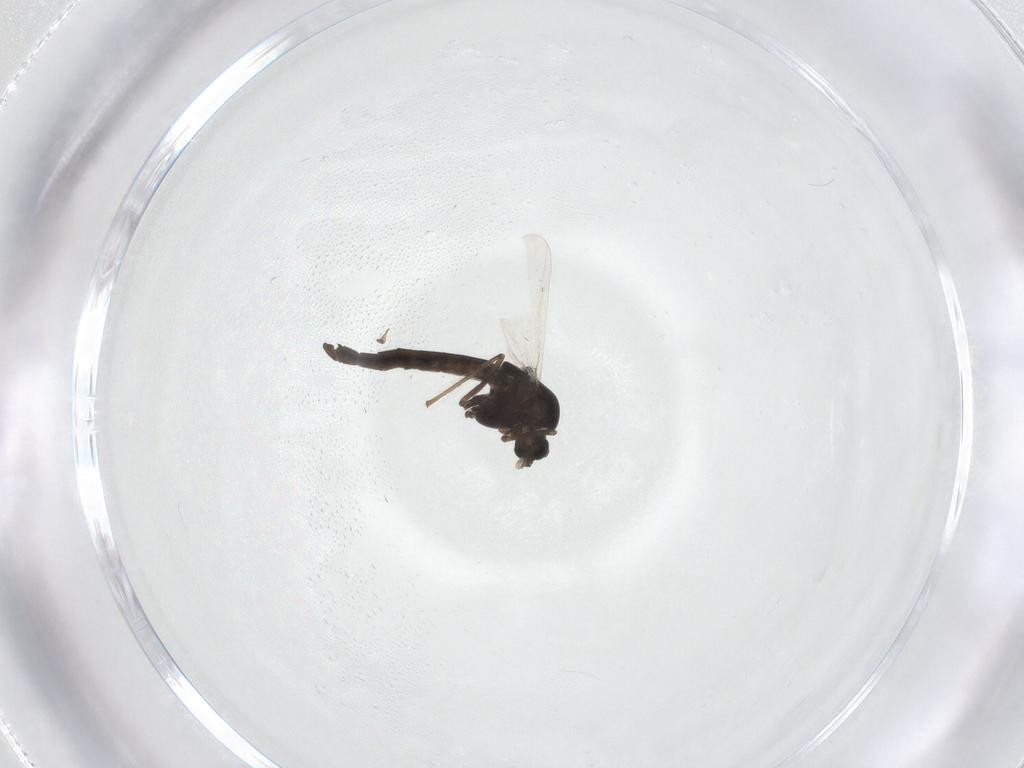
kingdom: Animalia
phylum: Arthropoda
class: Insecta
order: Diptera
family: Chironomidae
